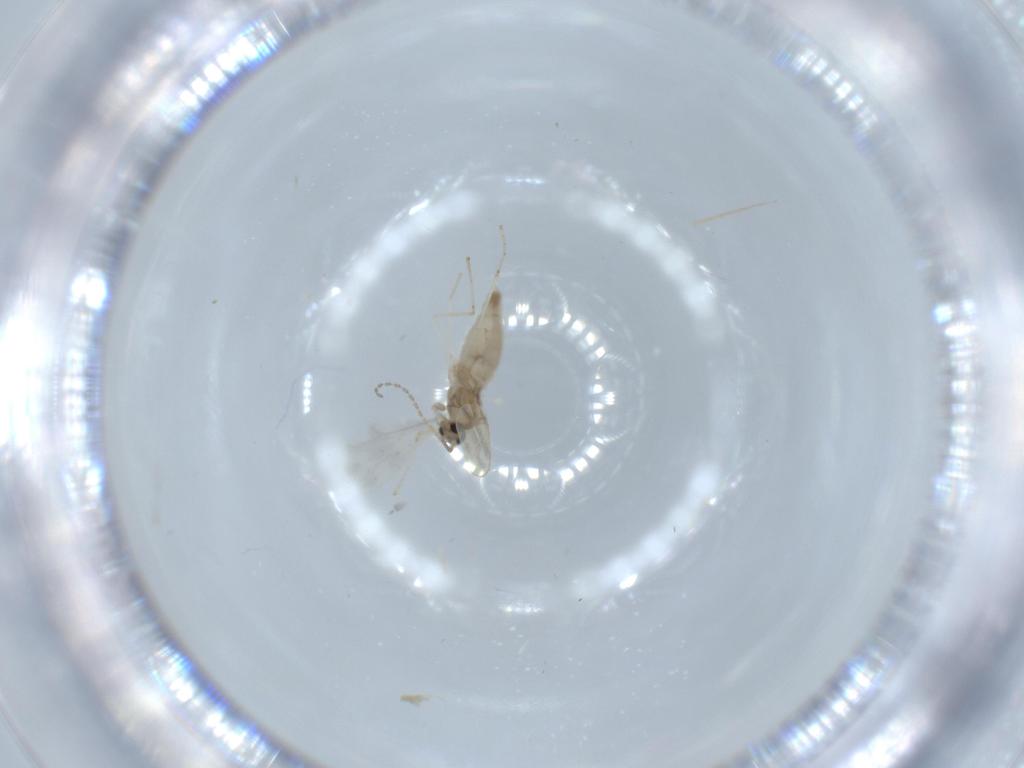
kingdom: Animalia
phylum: Arthropoda
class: Insecta
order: Diptera
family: Cecidomyiidae
